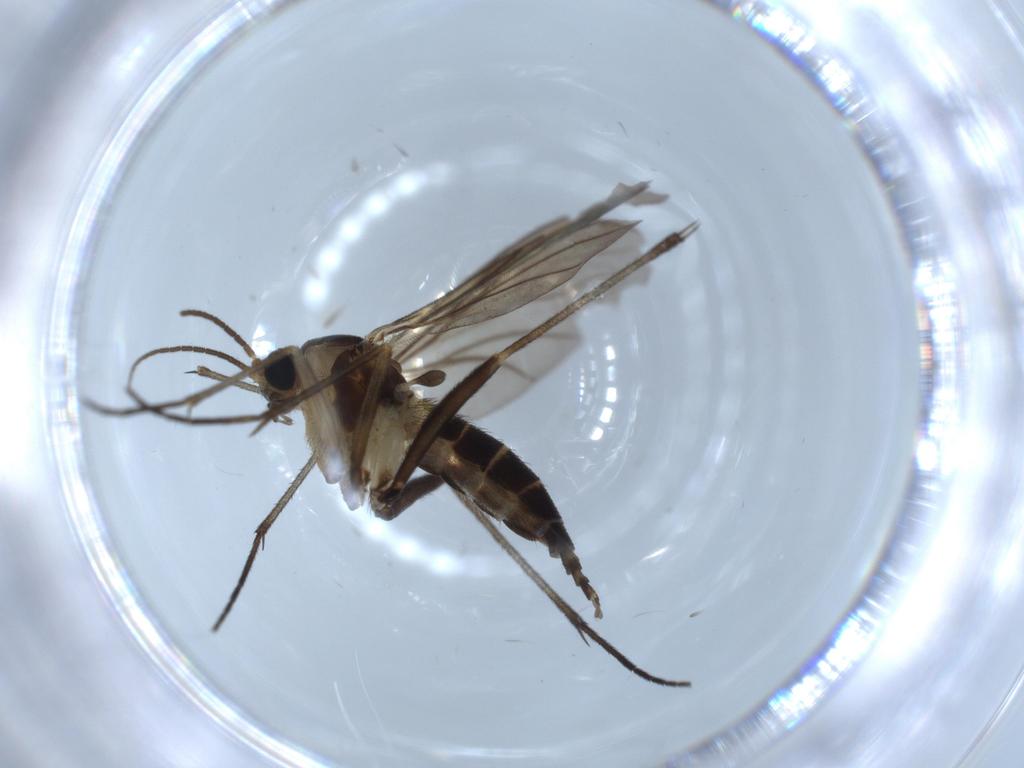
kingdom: Animalia
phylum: Arthropoda
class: Insecta
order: Diptera
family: Sciaridae
